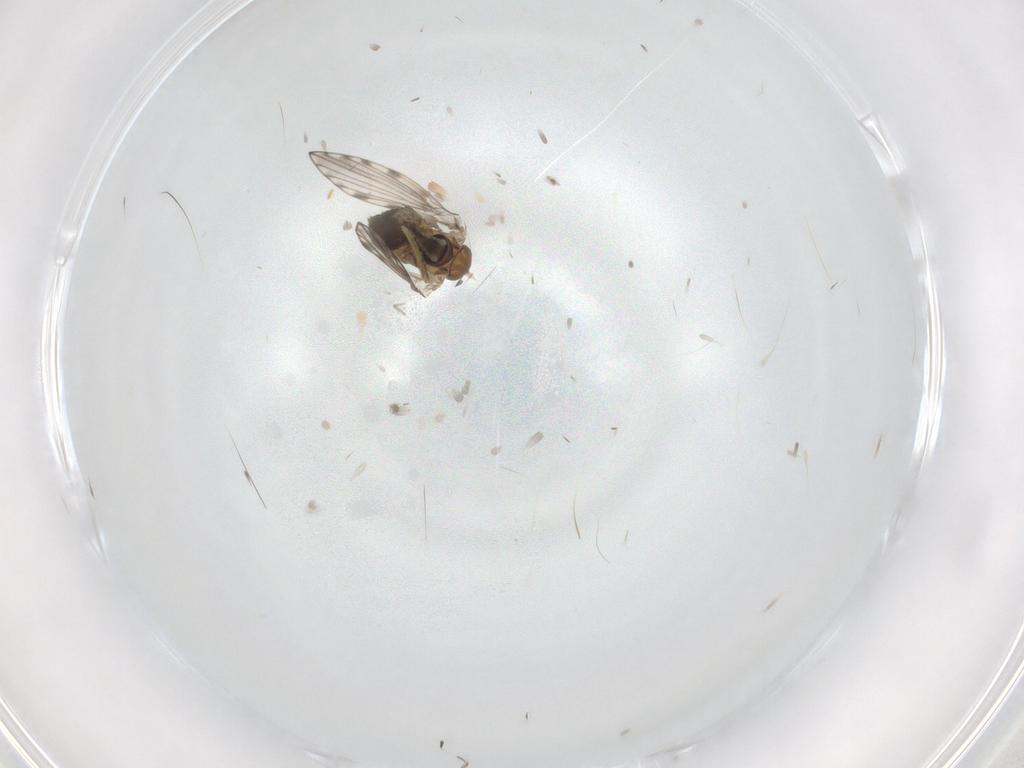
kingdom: Animalia
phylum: Arthropoda
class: Insecta
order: Diptera
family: Psychodidae
